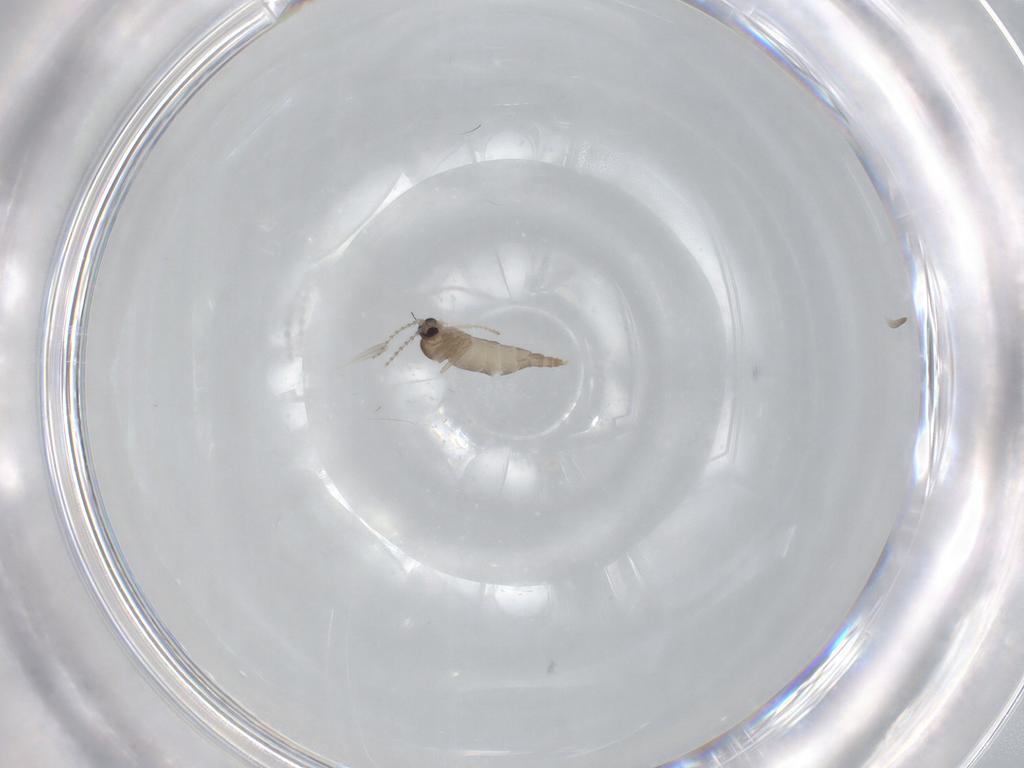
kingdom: Animalia
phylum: Arthropoda
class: Insecta
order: Diptera
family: Cecidomyiidae
